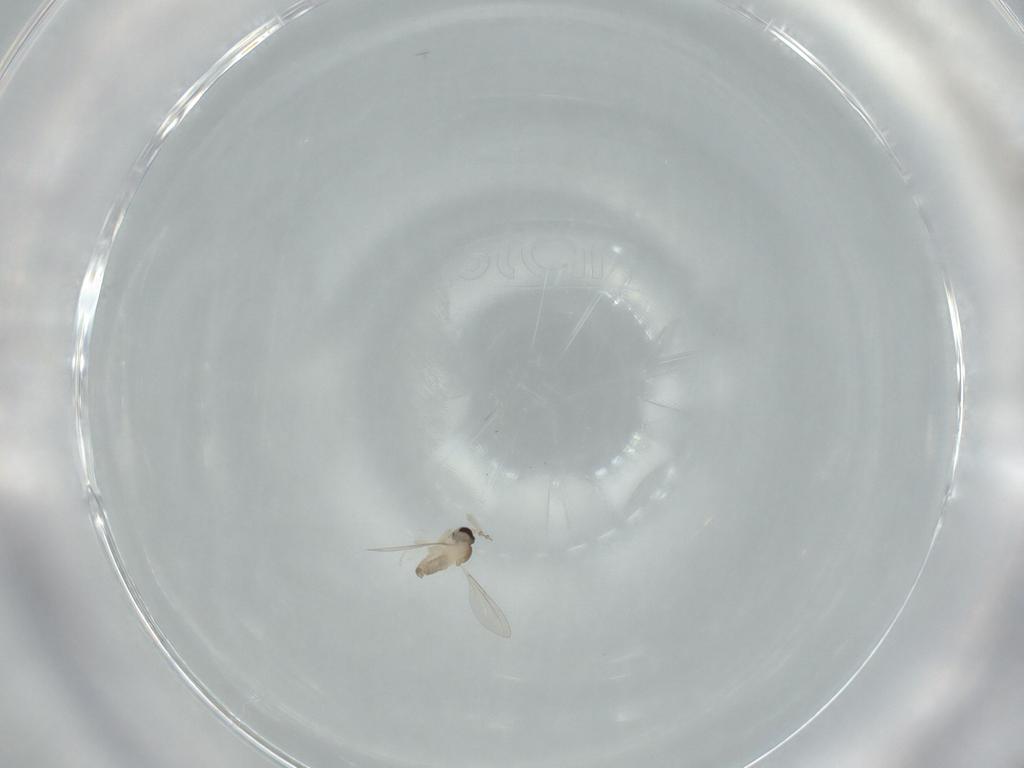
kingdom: Animalia
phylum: Arthropoda
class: Insecta
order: Diptera
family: Cecidomyiidae
